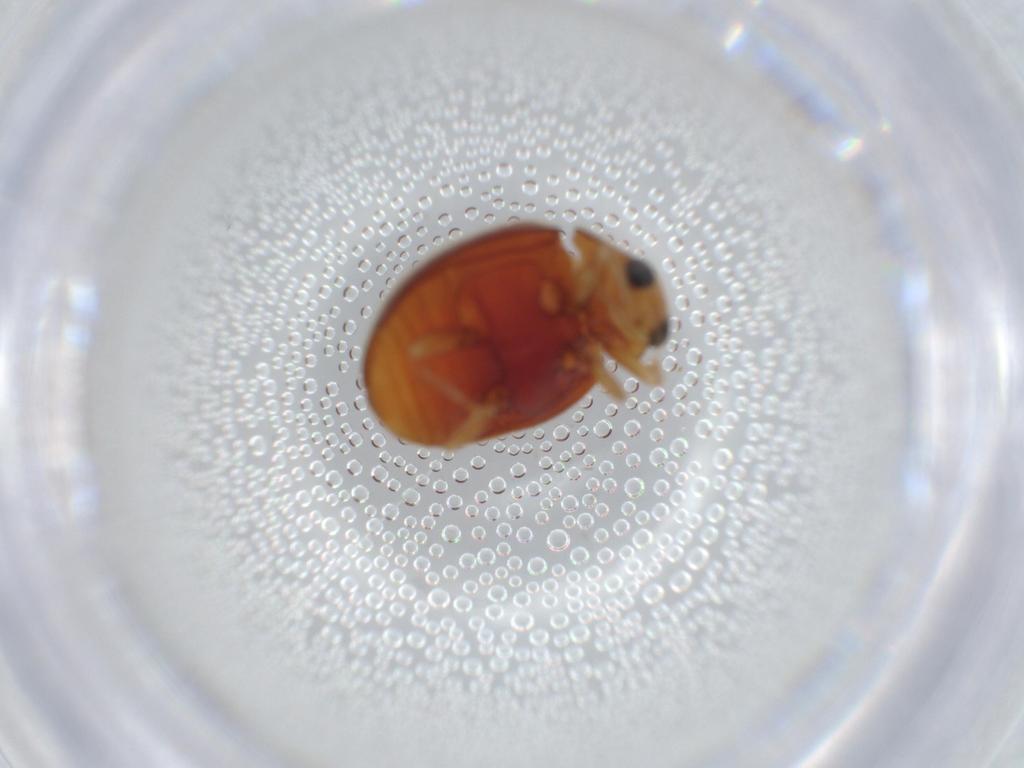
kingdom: Animalia
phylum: Arthropoda
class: Insecta
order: Coleoptera
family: Coccinellidae
